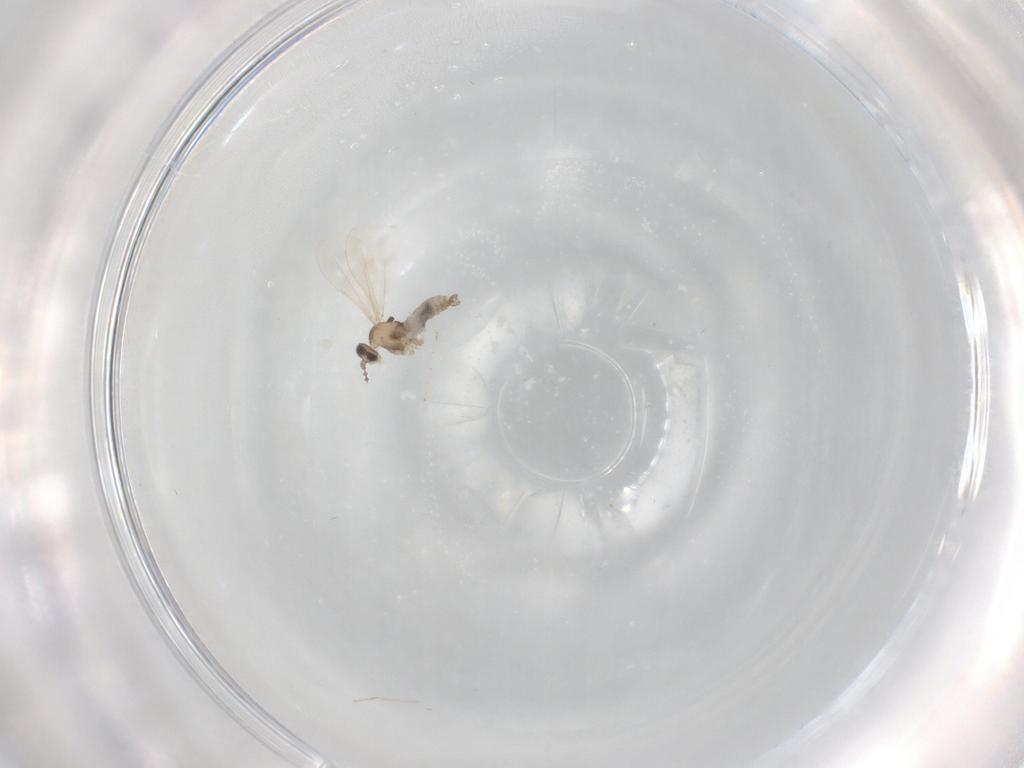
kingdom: Animalia
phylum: Arthropoda
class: Insecta
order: Diptera
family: Cecidomyiidae
